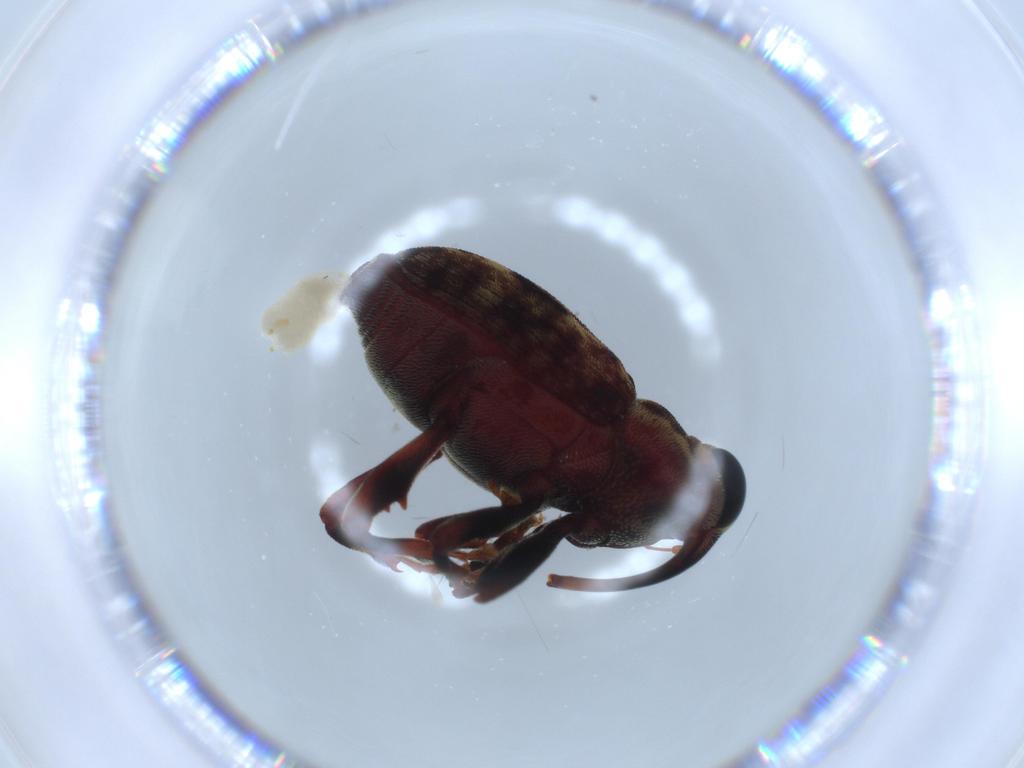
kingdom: Animalia
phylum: Arthropoda
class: Insecta
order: Coleoptera
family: Curculionidae
